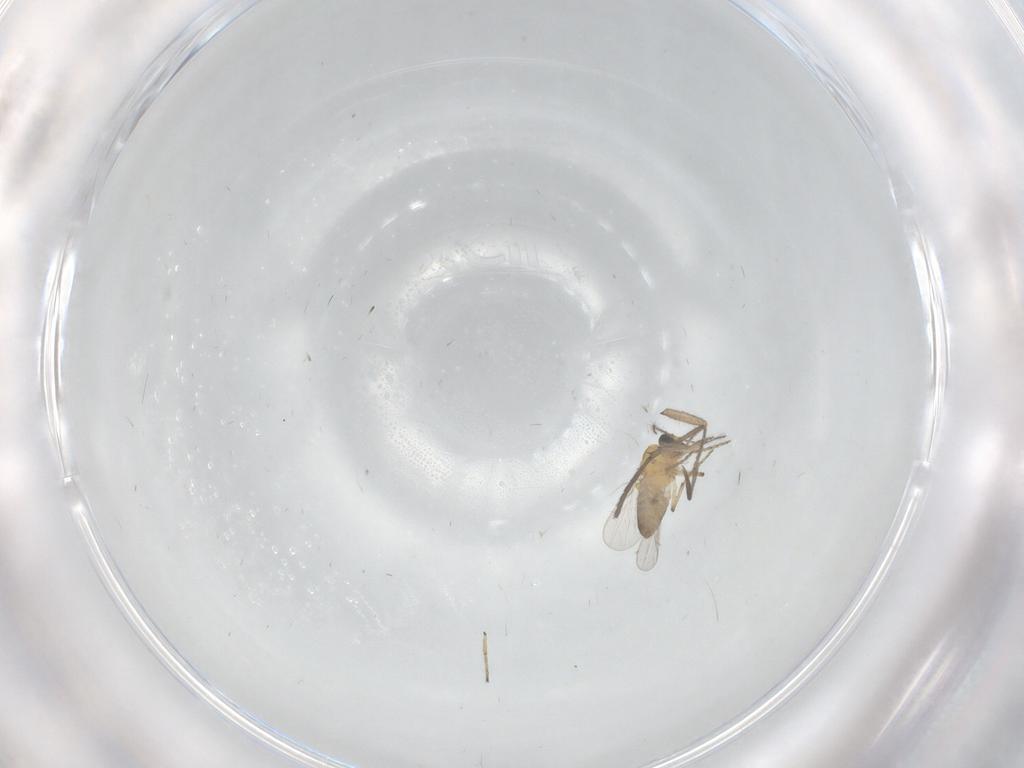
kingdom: Animalia
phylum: Arthropoda
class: Insecta
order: Diptera
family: Ceratopogonidae
